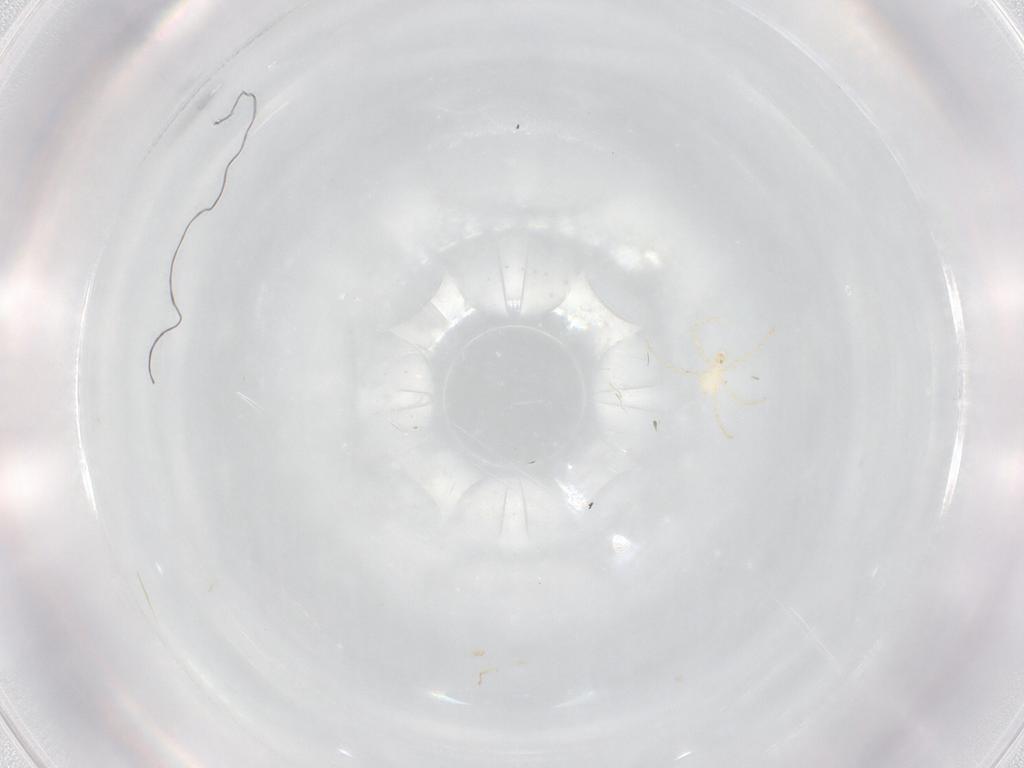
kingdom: Animalia
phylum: Arthropoda
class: Arachnida
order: Trombidiformes
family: Erythraeidae
